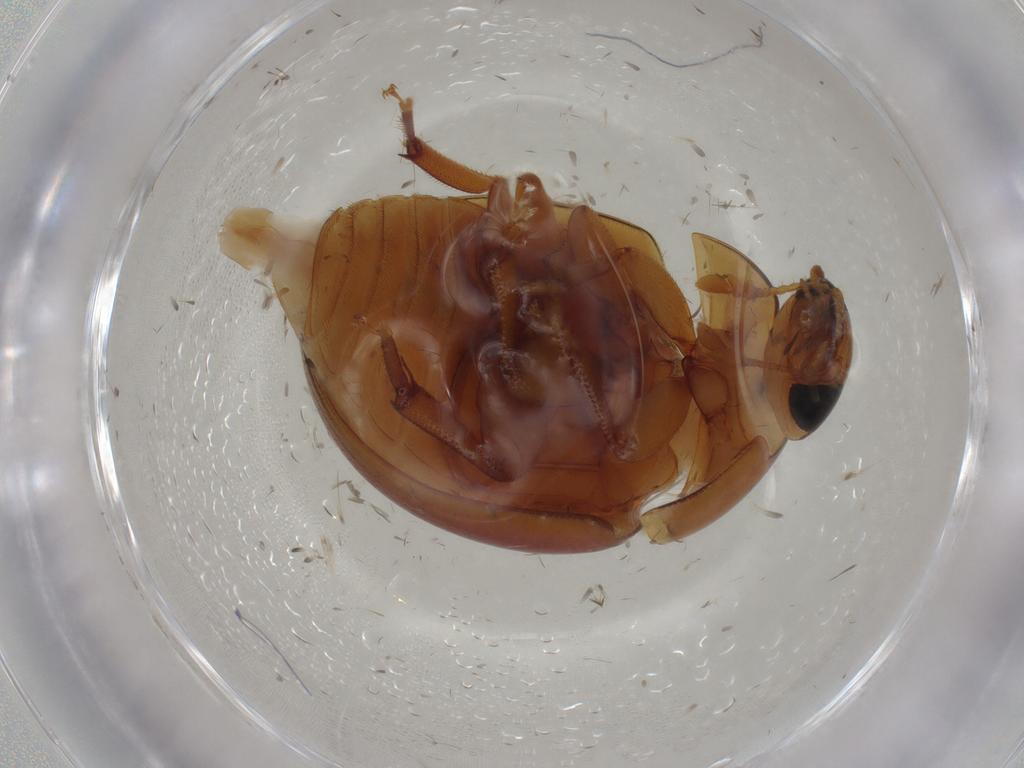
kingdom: Animalia
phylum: Arthropoda
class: Insecta
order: Coleoptera
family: Phalacridae
